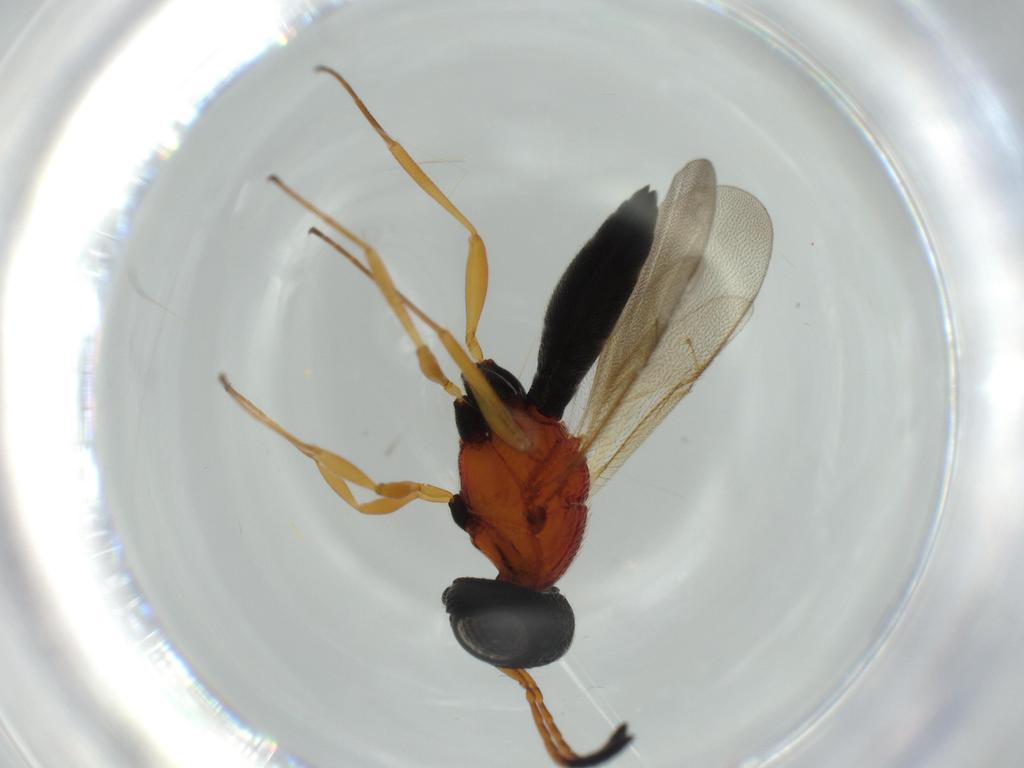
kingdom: Animalia
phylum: Arthropoda
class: Insecta
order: Hymenoptera
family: Scelionidae
